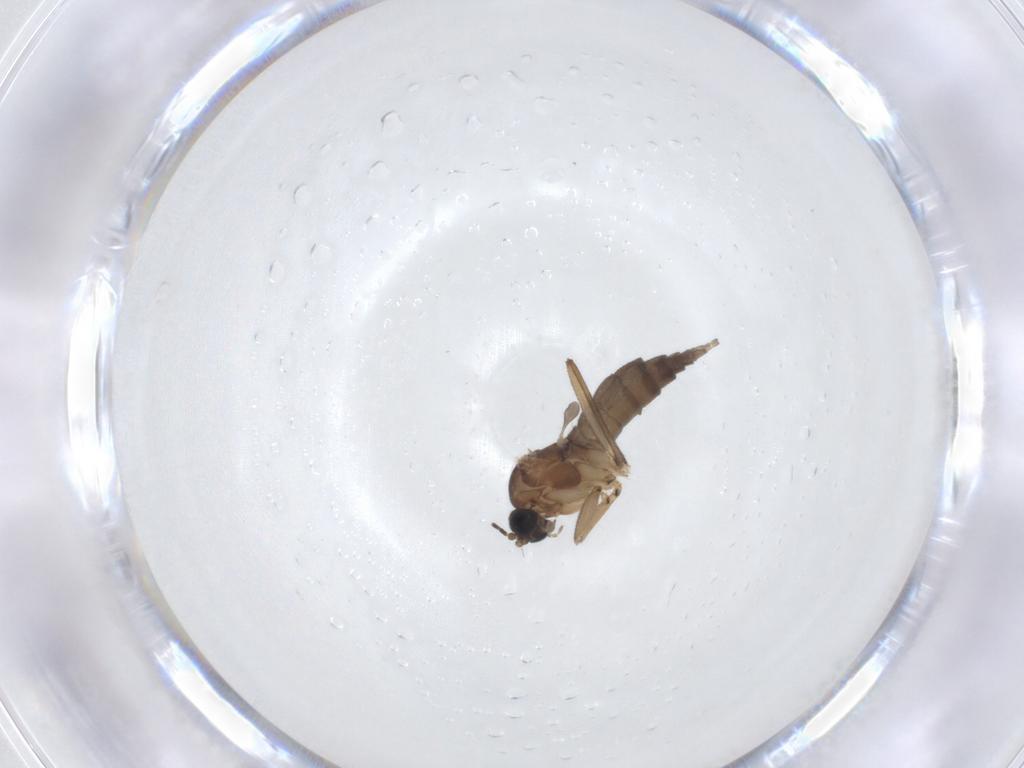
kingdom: Animalia
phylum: Arthropoda
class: Insecta
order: Diptera
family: Sciaridae
